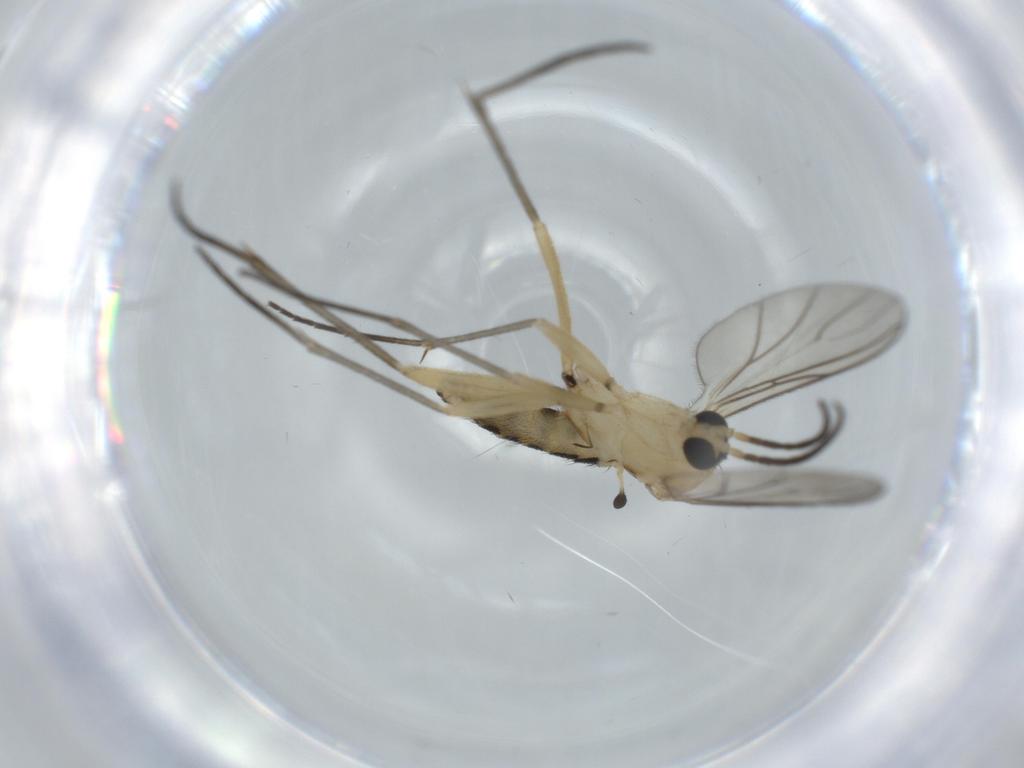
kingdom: Animalia
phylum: Arthropoda
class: Insecta
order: Diptera
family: Sciaridae
